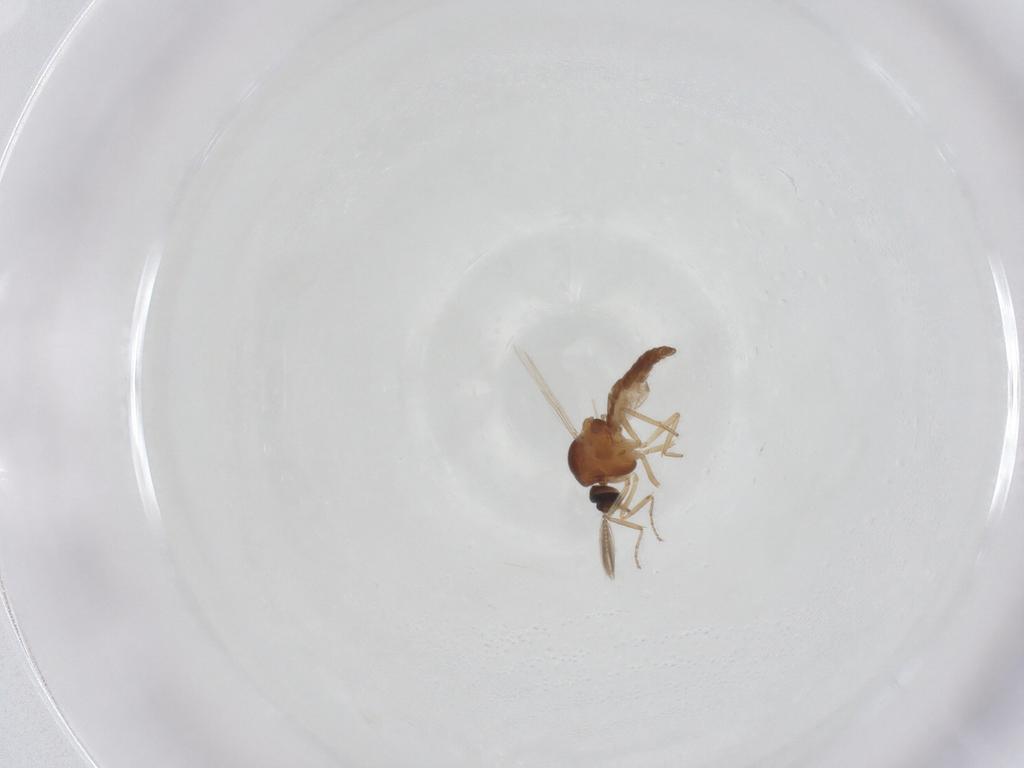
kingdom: Animalia
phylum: Arthropoda
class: Insecta
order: Diptera
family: Ceratopogonidae
